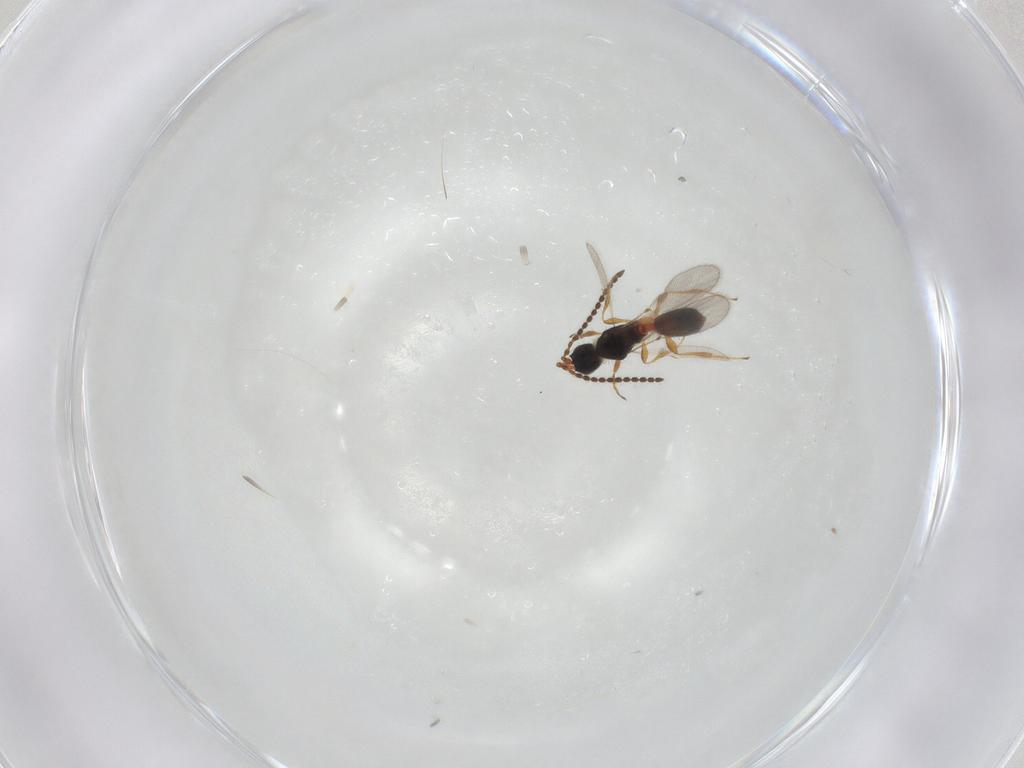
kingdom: Animalia
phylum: Arthropoda
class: Insecta
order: Hymenoptera
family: Diapriidae
